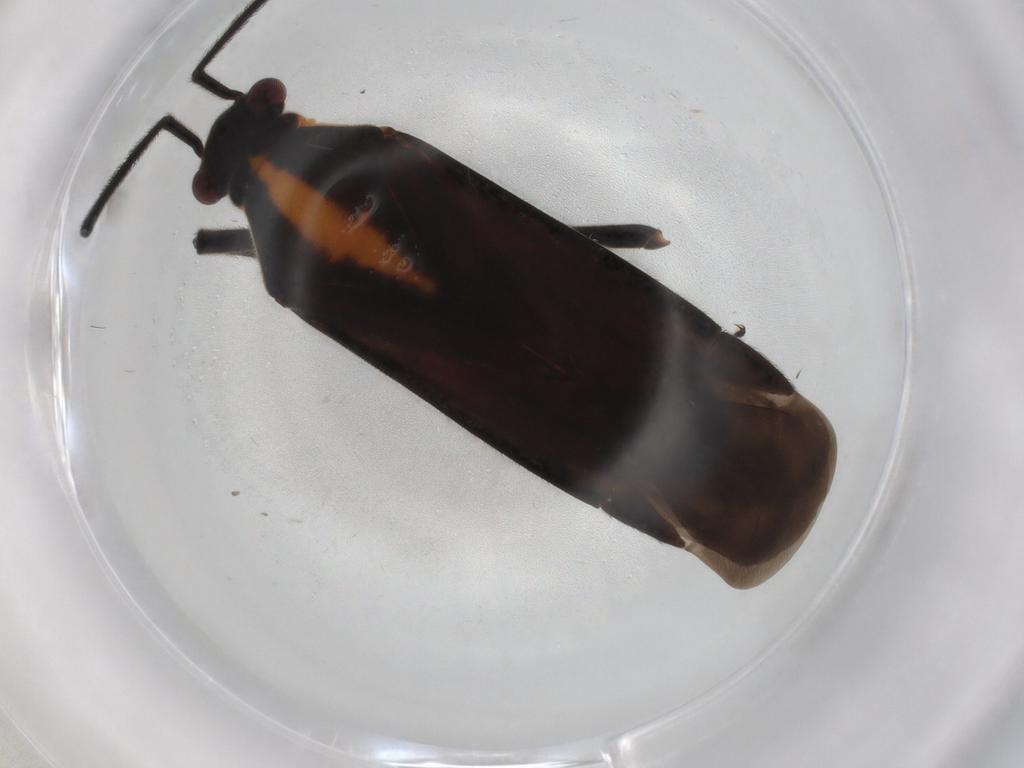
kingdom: Animalia
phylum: Arthropoda
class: Insecta
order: Hemiptera
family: Miridae
